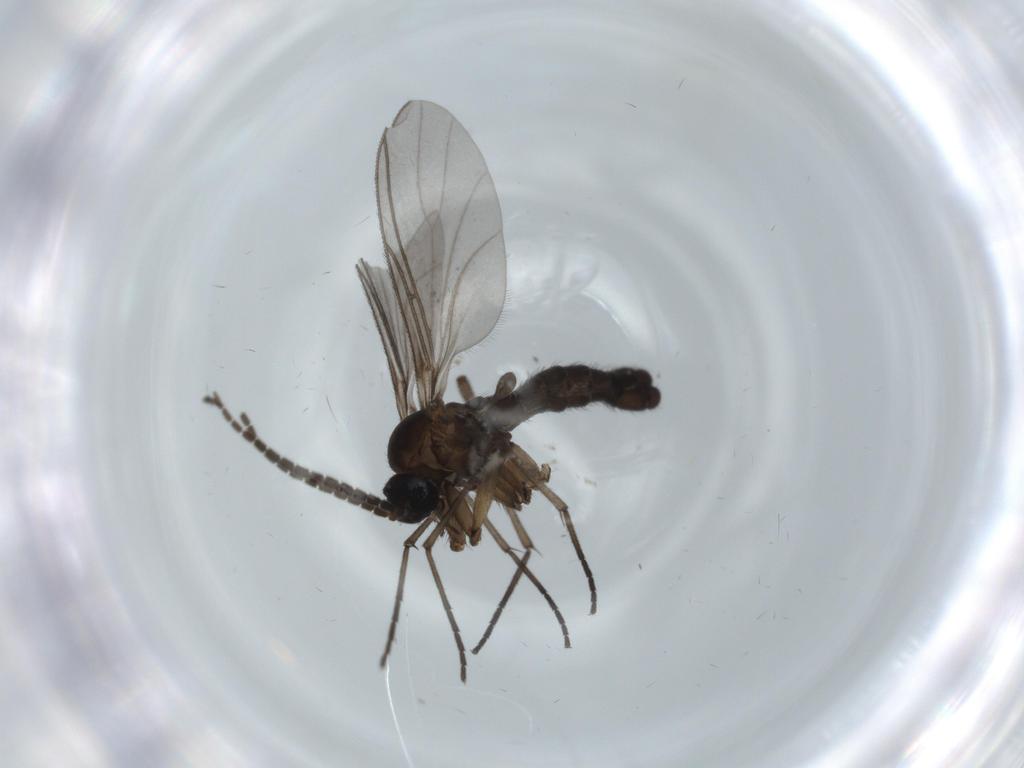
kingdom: Animalia
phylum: Arthropoda
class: Insecta
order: Diptera
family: Sciaridae
